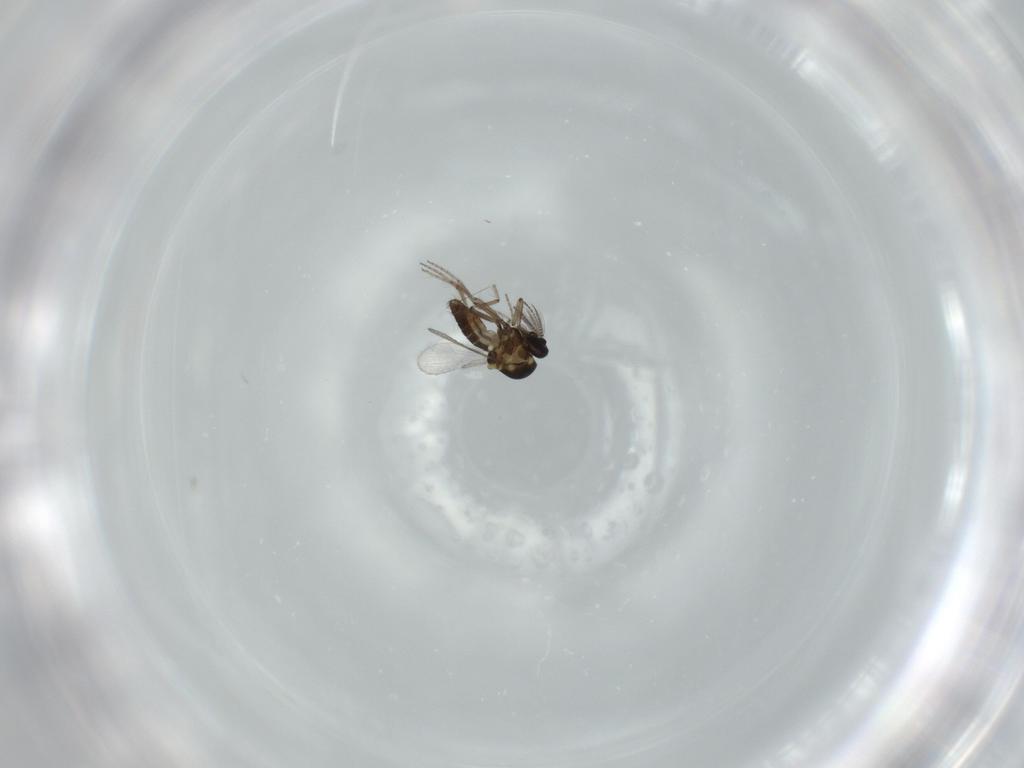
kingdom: Animalia
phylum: Arthropoda
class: Insecta
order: Diptera
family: Ceratopogonidae
